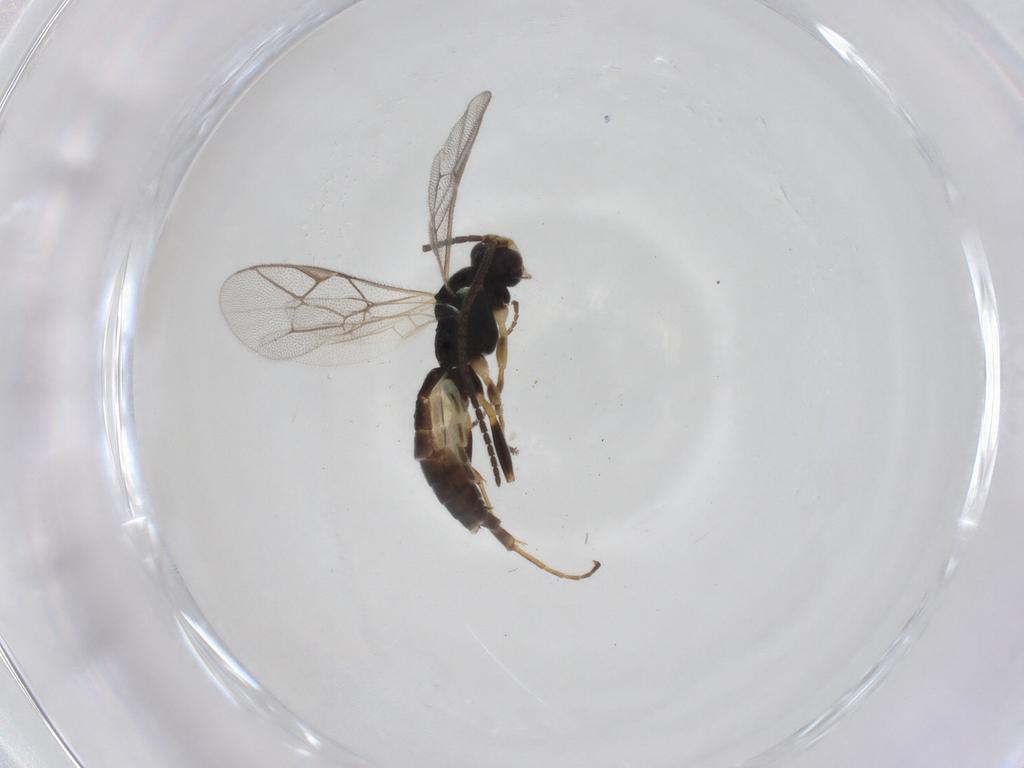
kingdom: Animalia
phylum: Arthropoda
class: Insecta
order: Hymenoptera
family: Ichneumonidae
